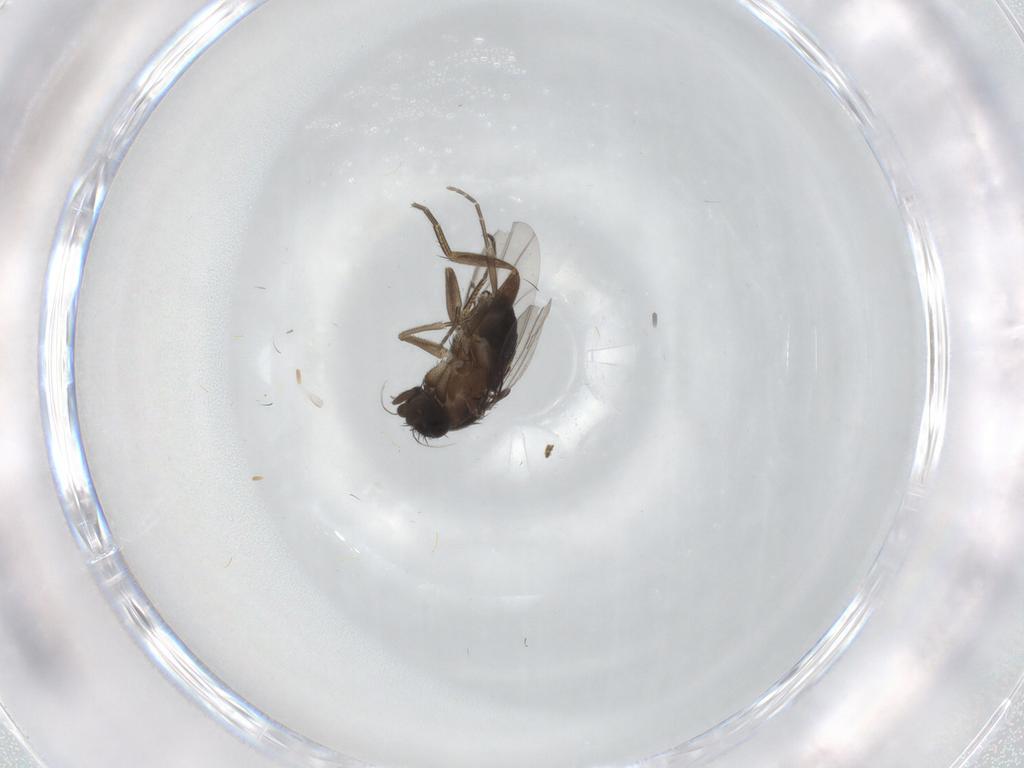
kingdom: Animalia
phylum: Arthropoda
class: Insecta
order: Diptera
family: Phoridae
